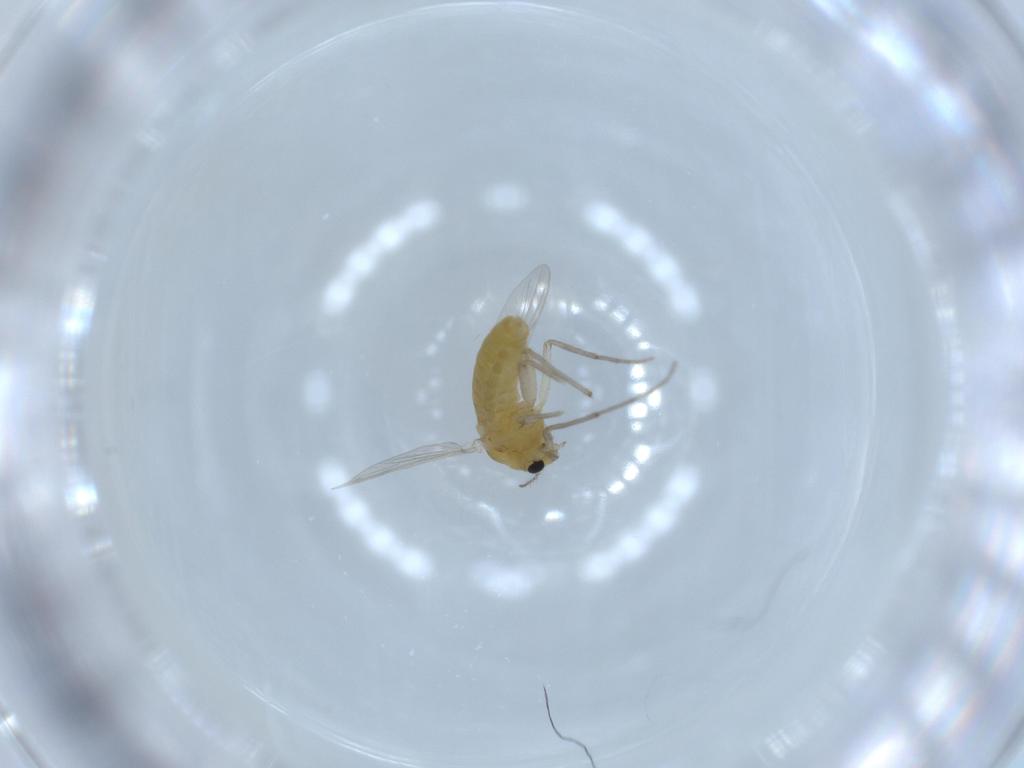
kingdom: Animalia
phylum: Arthropoda
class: Insecta
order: Diptera
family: Chironomidae
